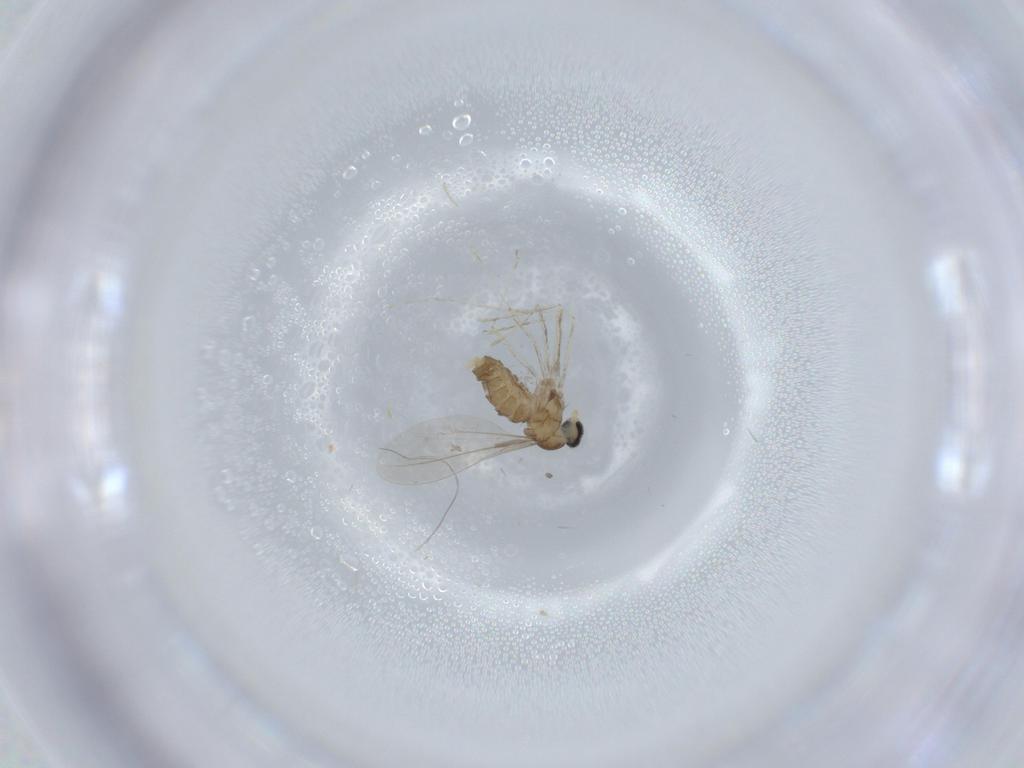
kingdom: Animalia
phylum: Arthropoda
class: Insecta
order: Diptera
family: Cecidomyiidae
